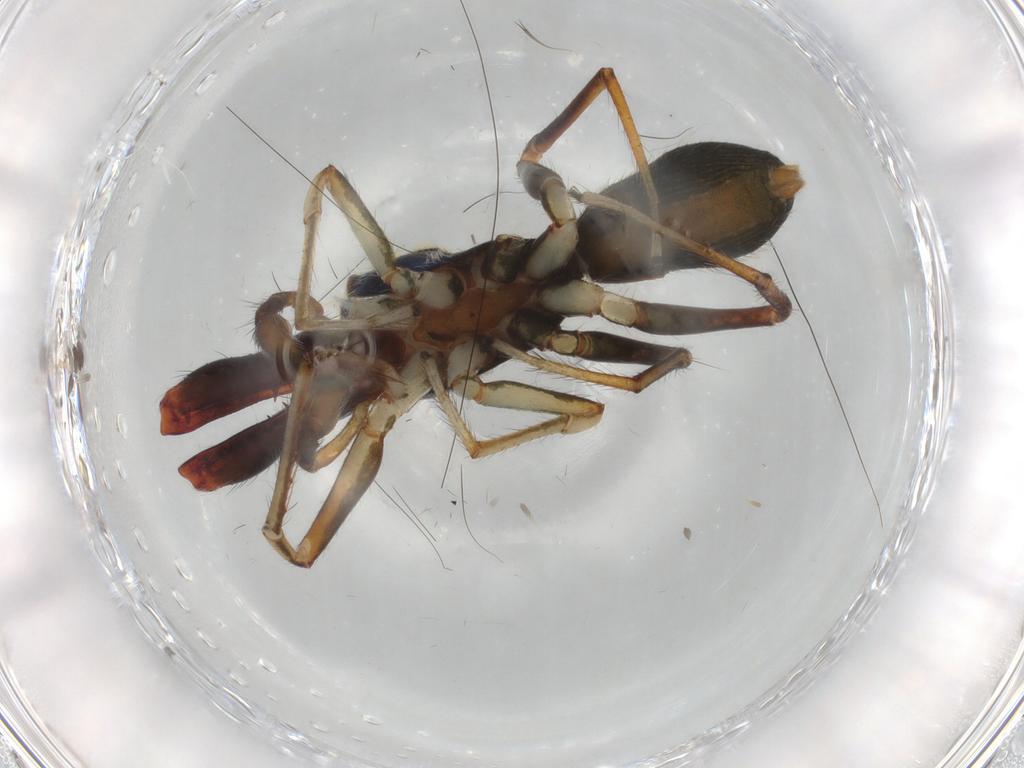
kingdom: Animalia
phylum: Arthropoda
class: Arachnida
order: Araneae
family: Salticidae
